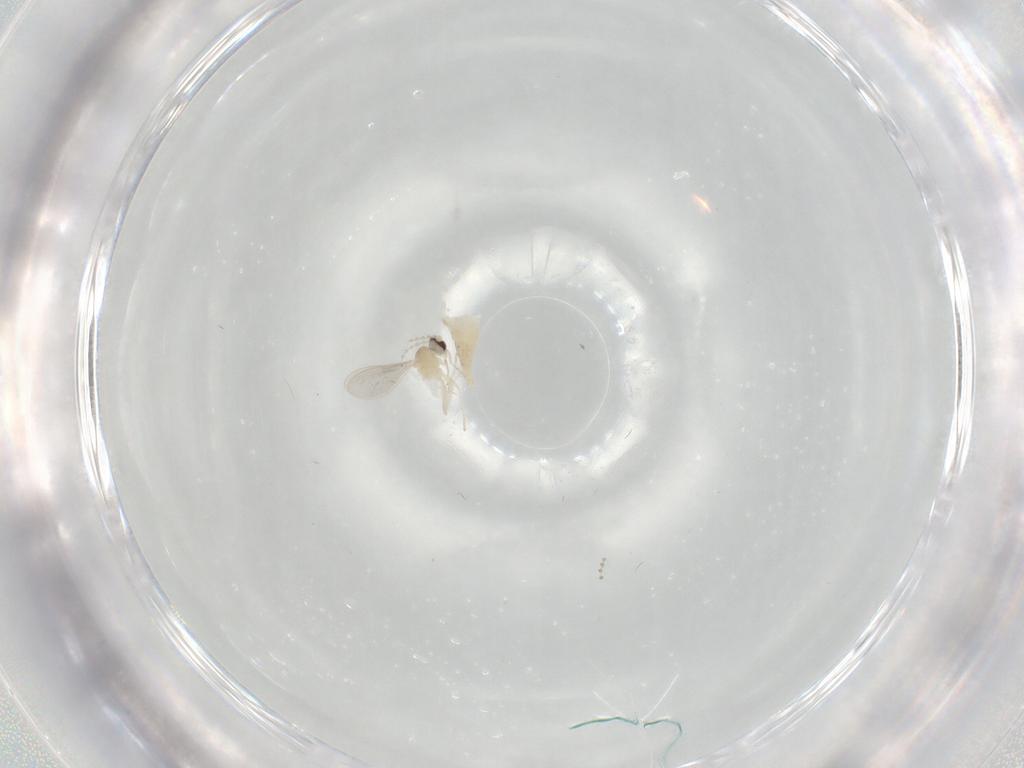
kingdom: Animalia
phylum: Arthropoda
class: Insecta
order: Diptera
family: Cecidomyiidae
